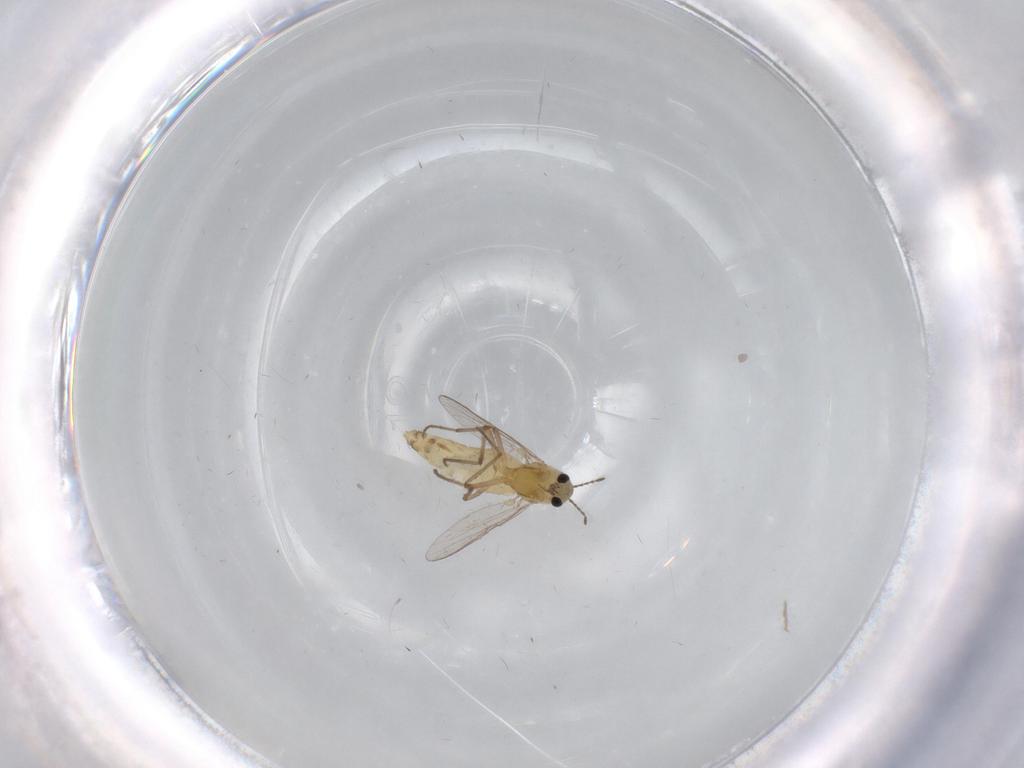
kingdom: Animalia
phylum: Arthropoda
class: Insecta
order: Diptera
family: Chironomidae
